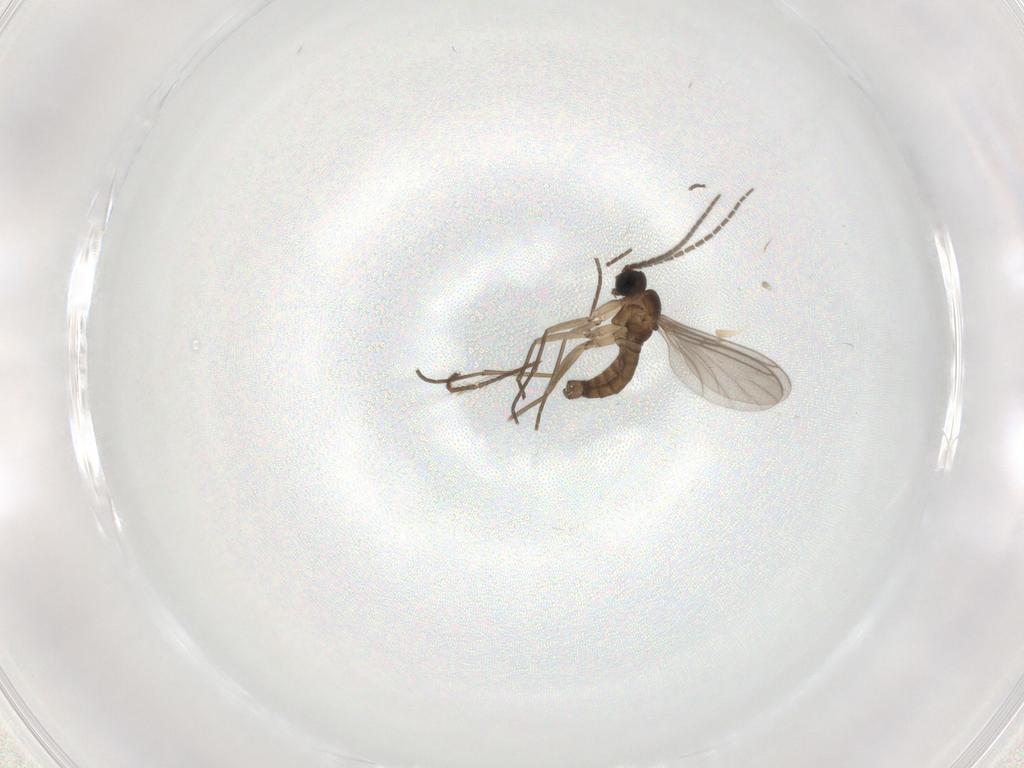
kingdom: Animalia
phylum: Arthropoda
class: Insecta
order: Diptera
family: Sciaridae
